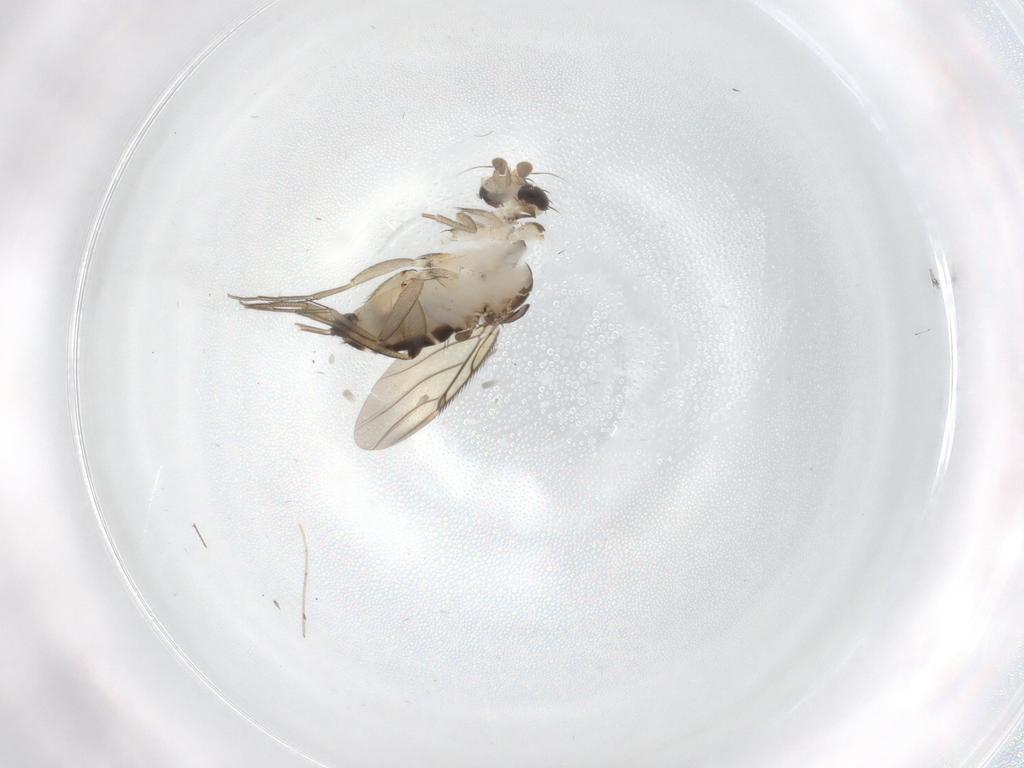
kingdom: Animalia
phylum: Arthropoda
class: Insecta
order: Diptera
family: Phoridae
